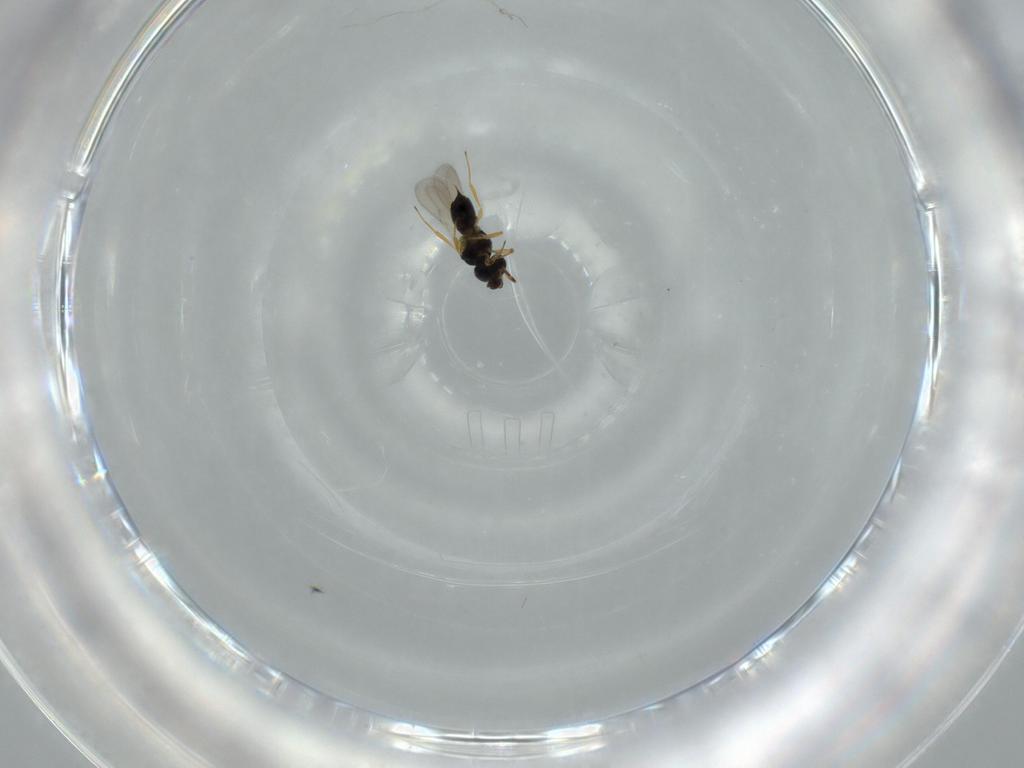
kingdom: Animalia
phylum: Arthropoda
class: Insecta
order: Hymenoptera
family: Scelionidae
